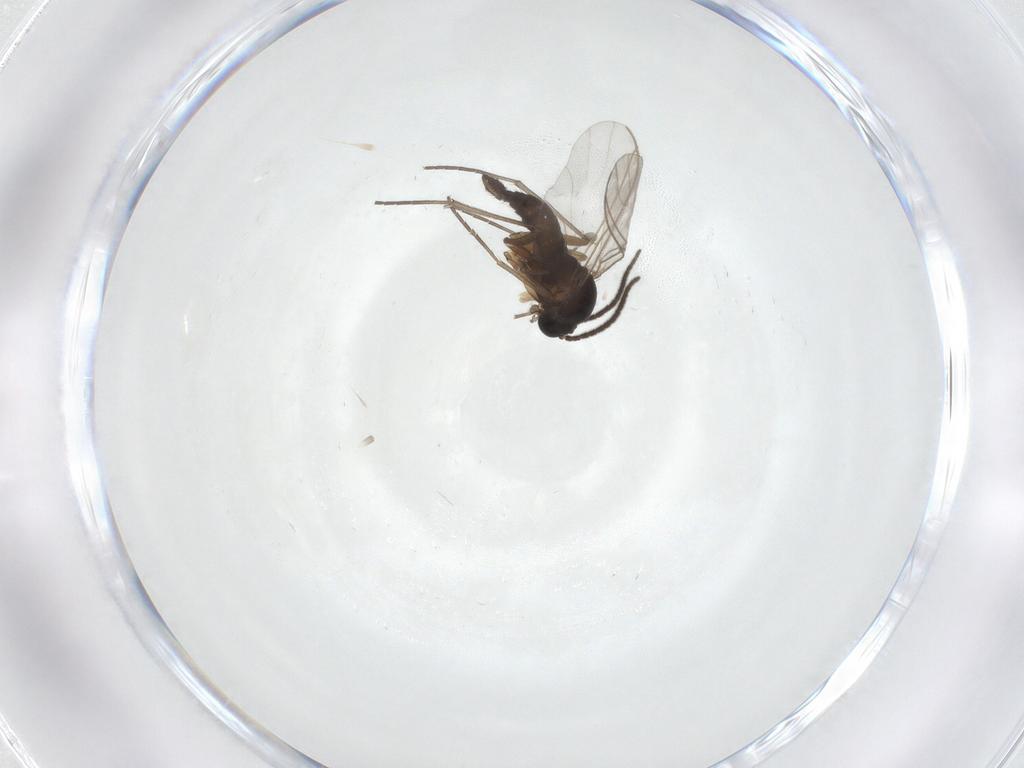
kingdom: Animalia
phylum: Arthropoda
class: Insecta
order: Diptera
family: Sciaridae
